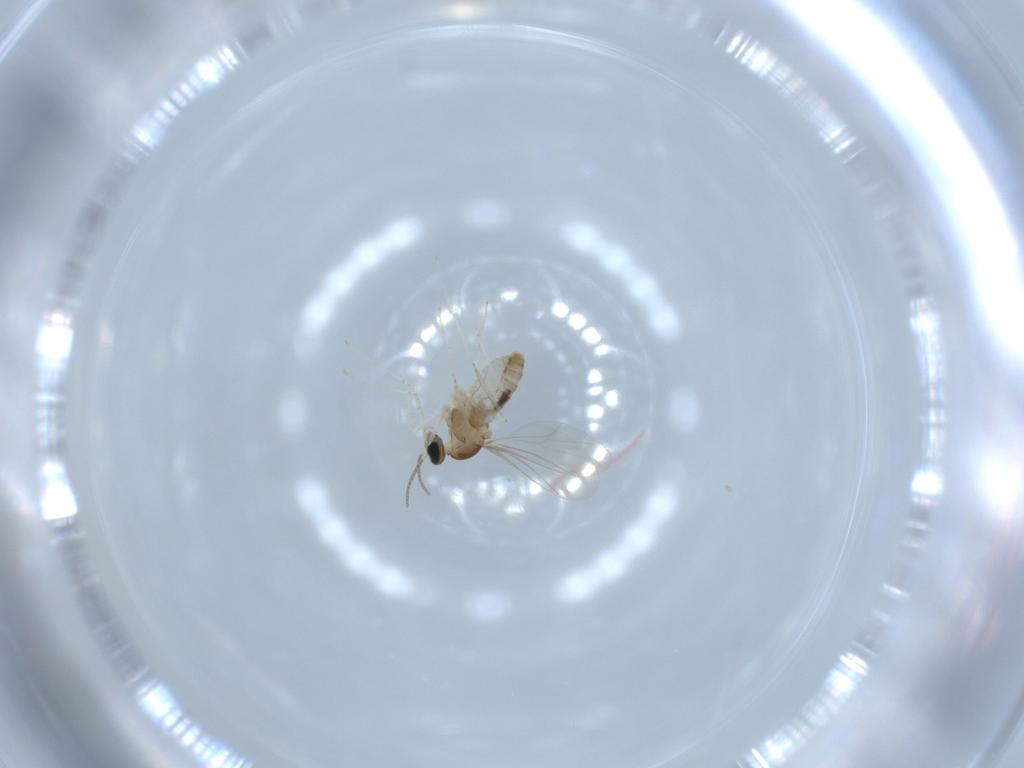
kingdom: Animalia
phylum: Arthropoda
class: Insecta
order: Diptera
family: Cecidomyiidae
